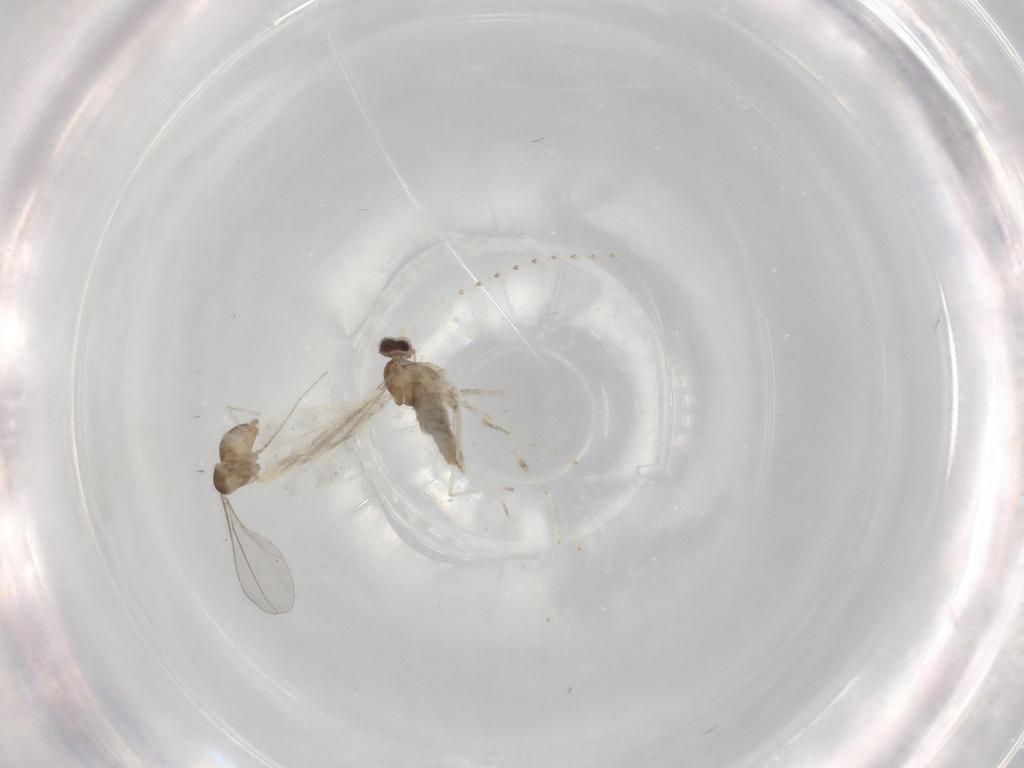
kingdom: Animalia
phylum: Arthropoda
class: Insecta
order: Diptera
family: Cecidomyiidae
